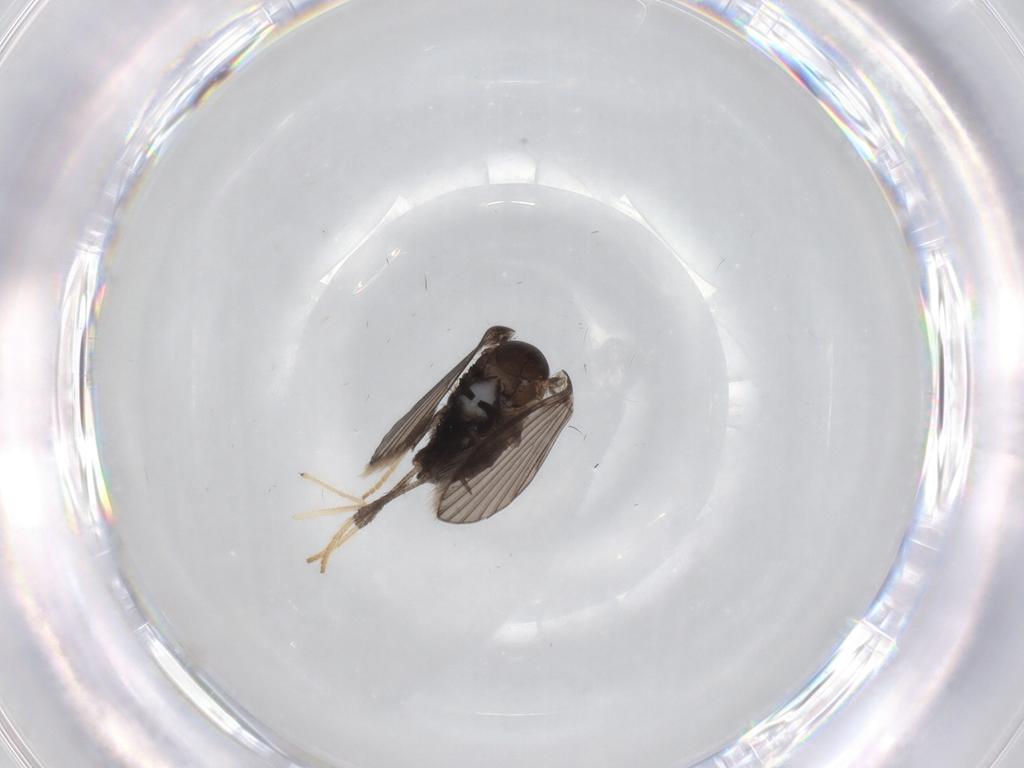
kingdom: Animalia
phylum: Arthropoda
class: Insecta
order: Diptera
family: Psychodidae
